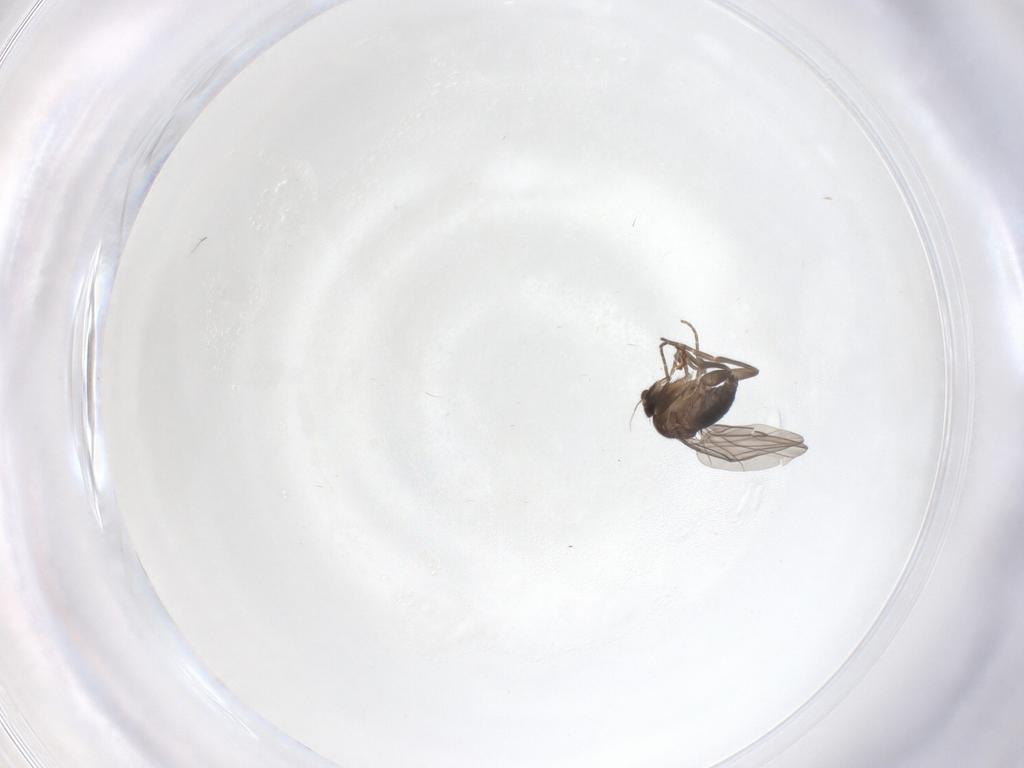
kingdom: Animalia
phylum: Arthropoda
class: Insecta
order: Diptera
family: Phoridae
